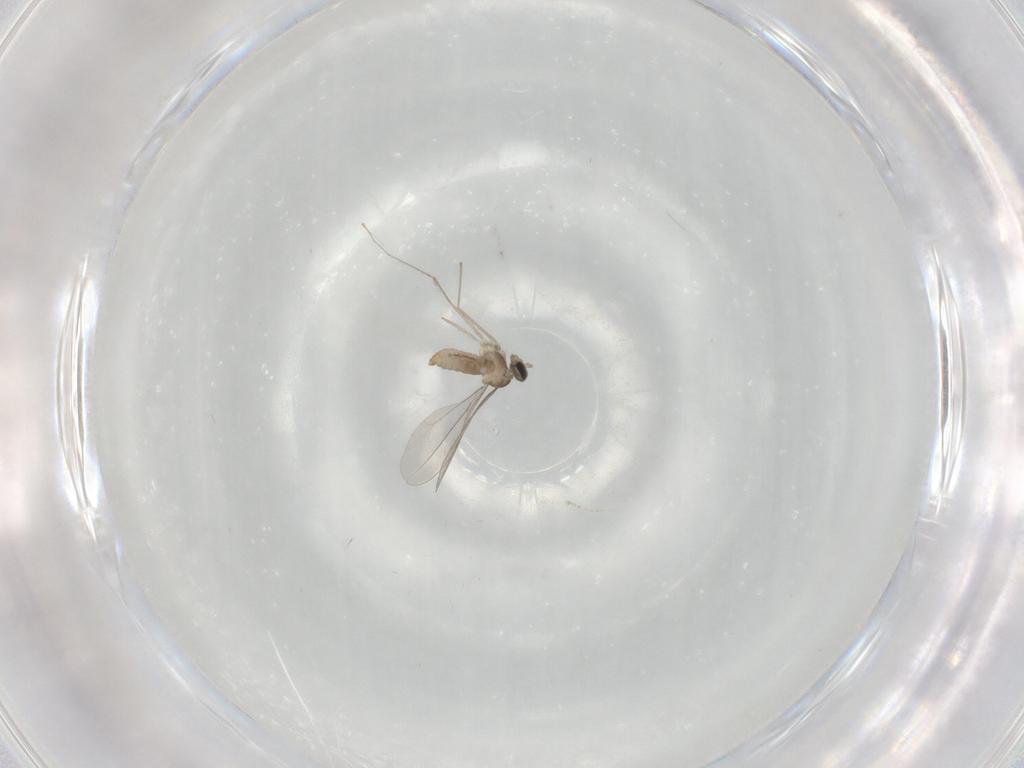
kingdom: Animalia
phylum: Arthropoda
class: Insecta
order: Diptera
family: Cecidomyiidae
